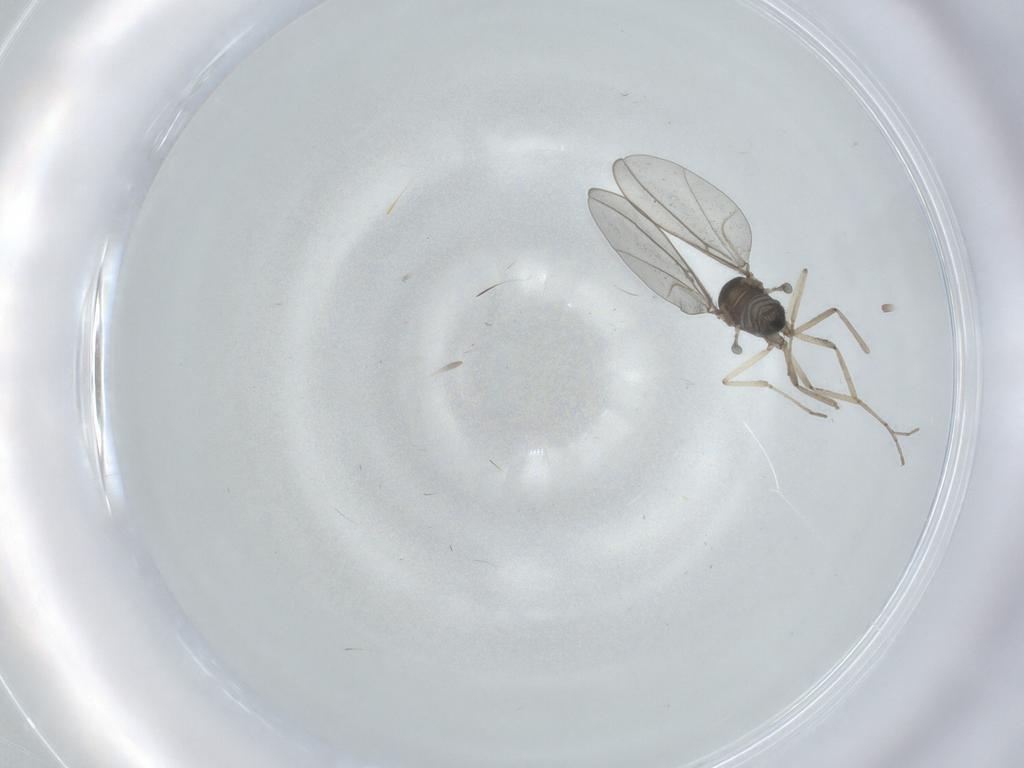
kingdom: Animalia
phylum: Arthropoda
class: Insecta
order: Diptera
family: Cecidomyiidae
